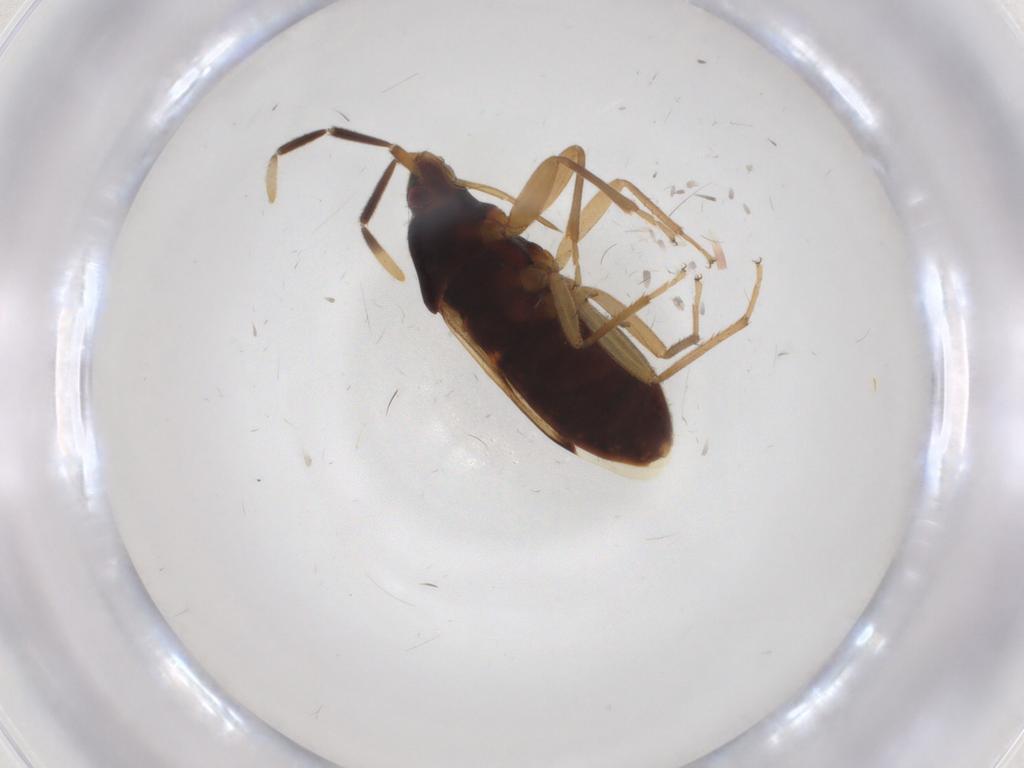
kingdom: Animalia
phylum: Arthropoda
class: Insecta
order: Hemiptera
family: Rhyparochromidae
